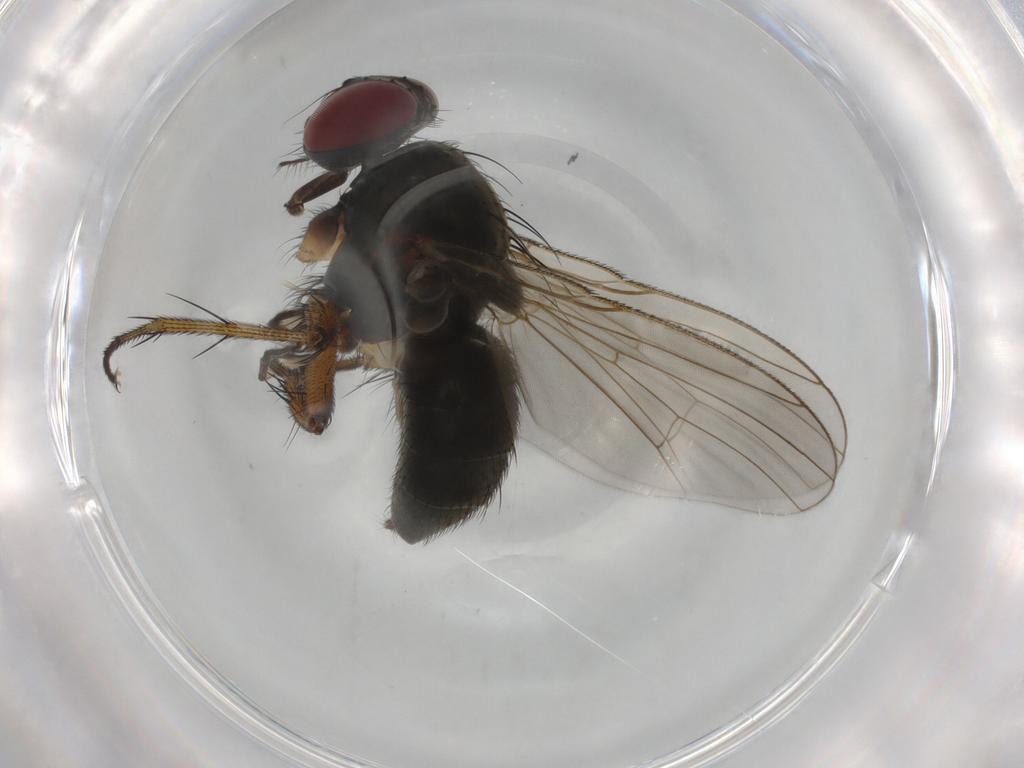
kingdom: Animalia
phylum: Arthropoda
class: Insecta
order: Diptera
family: Chironomidae
